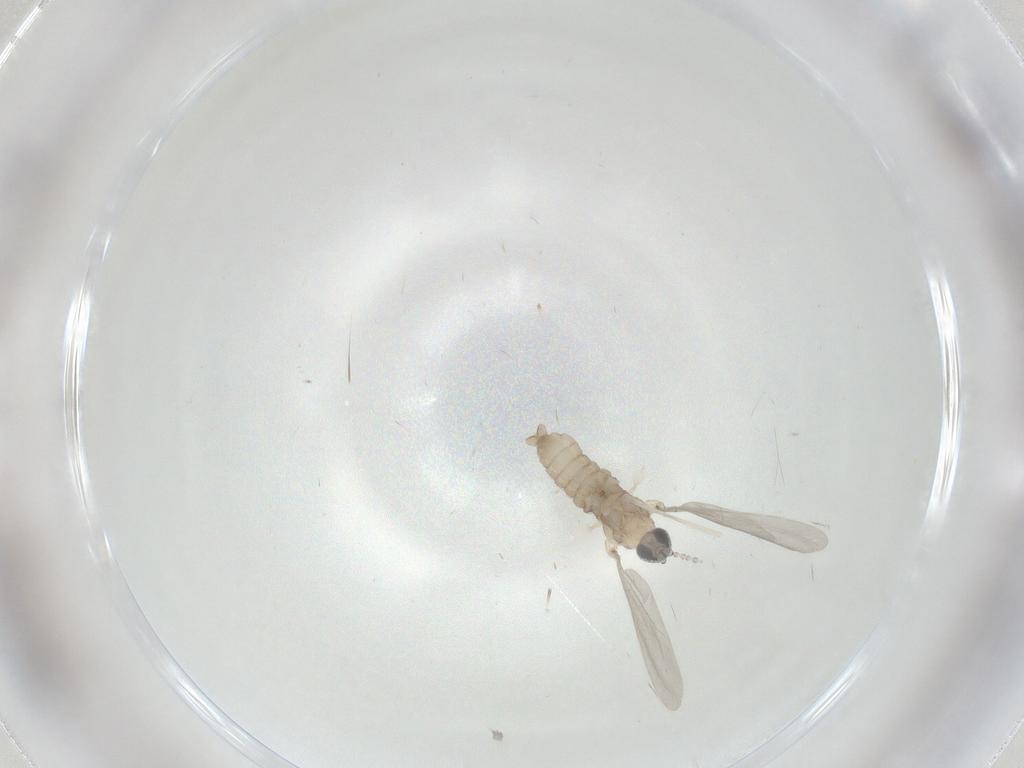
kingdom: Animalia
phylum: Arthropoda
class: Insecta
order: Diptera
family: Cecidomyiidae
